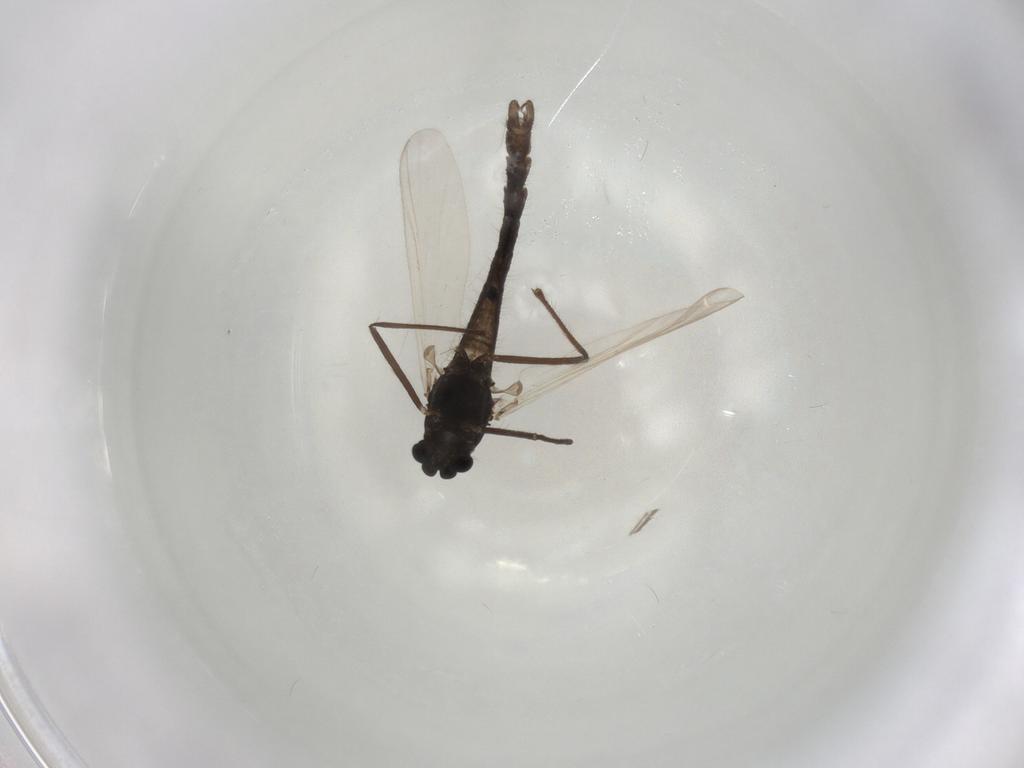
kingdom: Animalia
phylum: Arthropoda
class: Insecta
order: Diptera
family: Chironomidae
